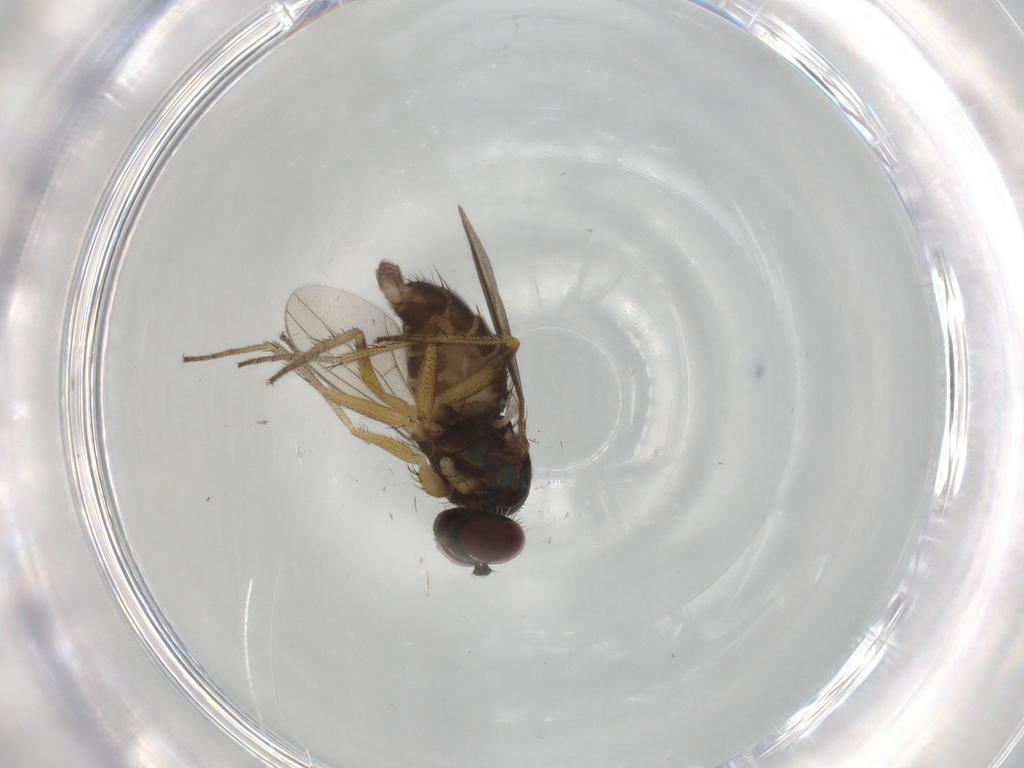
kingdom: Animalia
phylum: Arthropoda
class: Insecta
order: Diptera
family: Dolichopodidae
